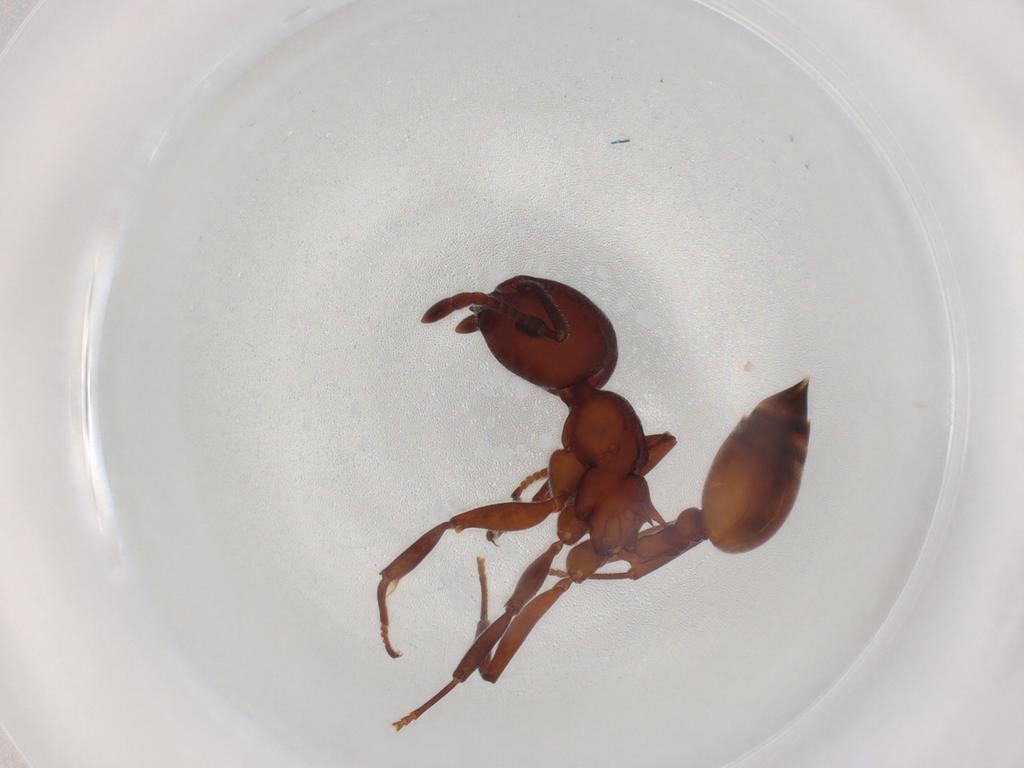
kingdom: Animalia
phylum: Arthropoda
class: Insecta
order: Hymenoptera
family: Formicidae
